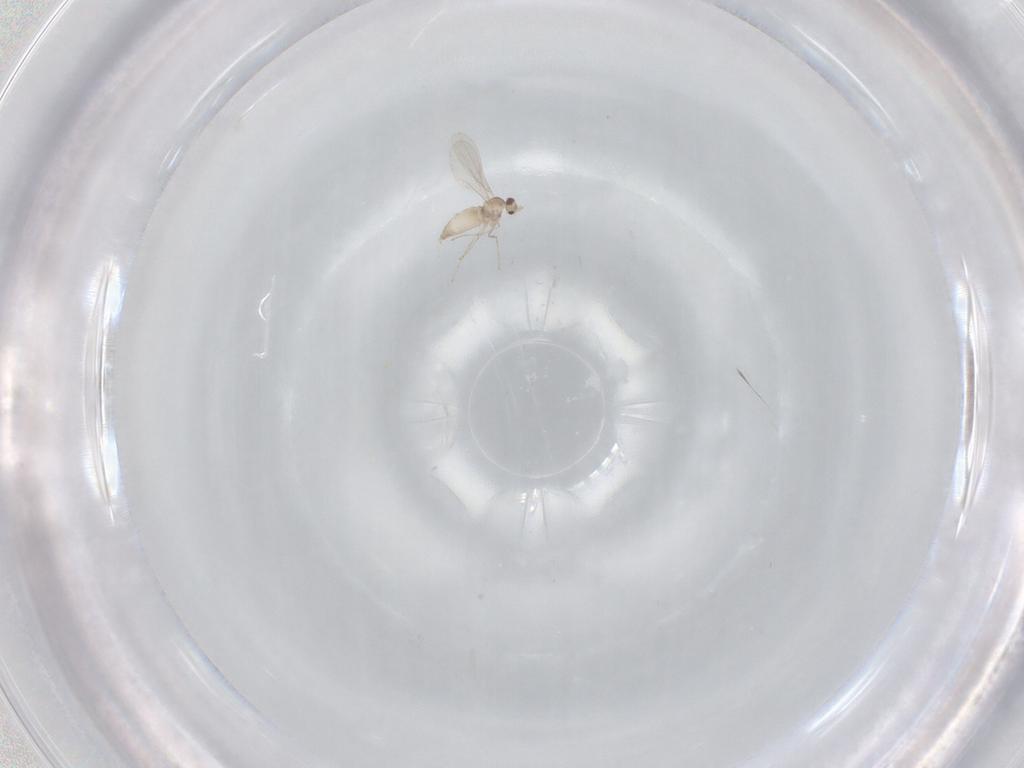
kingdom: Animalia
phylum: Arthropoda
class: Insecta
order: Diptera
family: Cecidomyiidae
